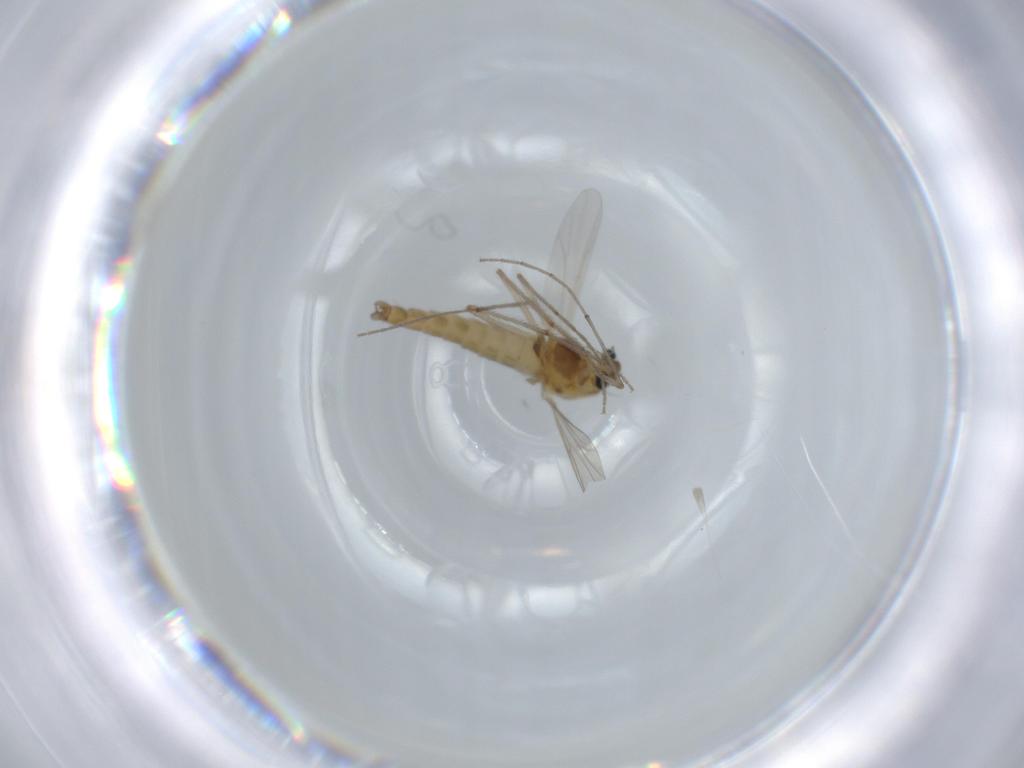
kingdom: Animalia
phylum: Arthropoda
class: Insecta
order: Diptera
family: Chironomidae
